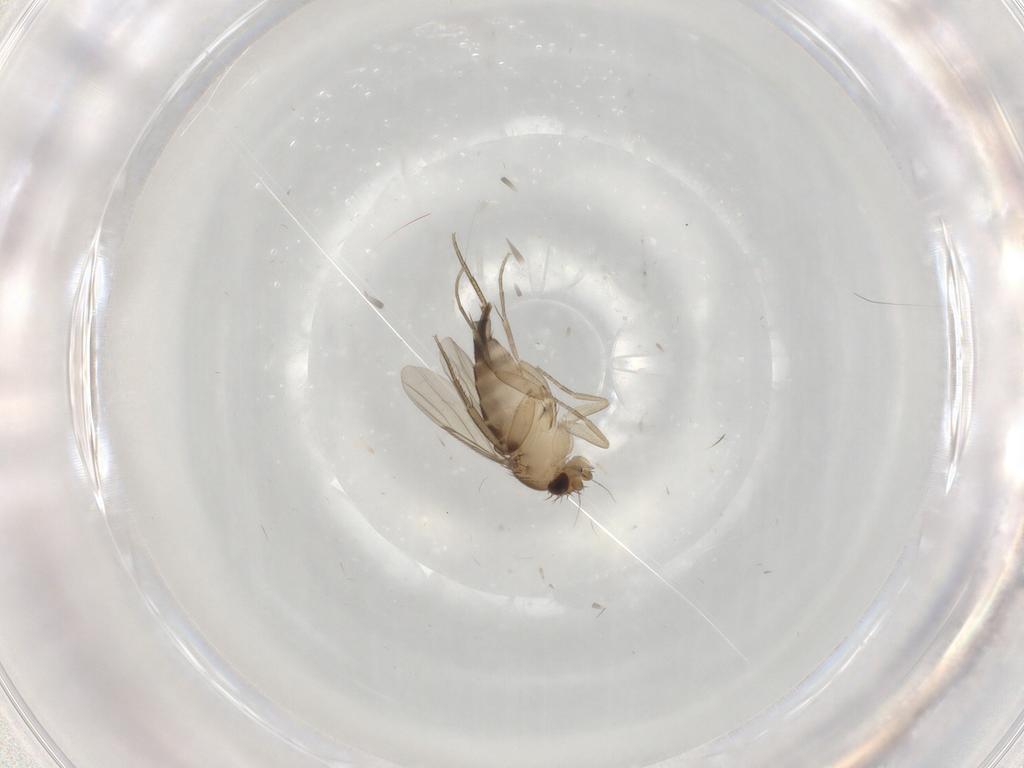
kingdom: Animalia
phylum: Arthropoda
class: Insecta
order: Diptera
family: Phoridae
